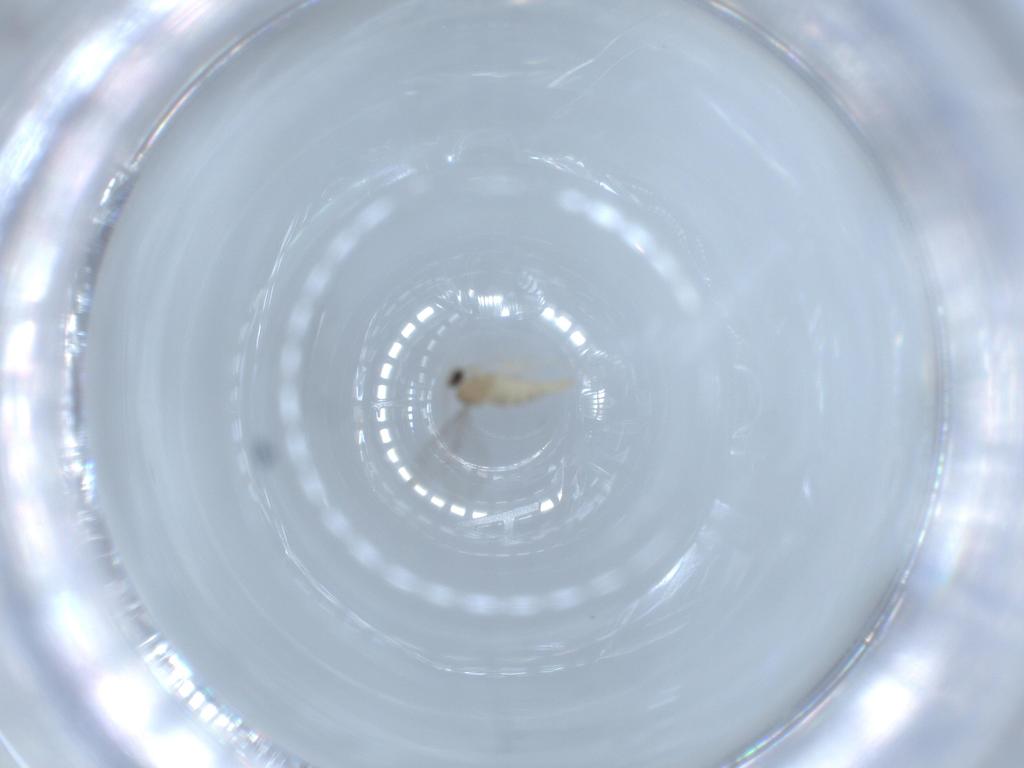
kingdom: Animalia
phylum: Arthropoda
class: Insecta
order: Diptera
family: Cecidomyiidae
